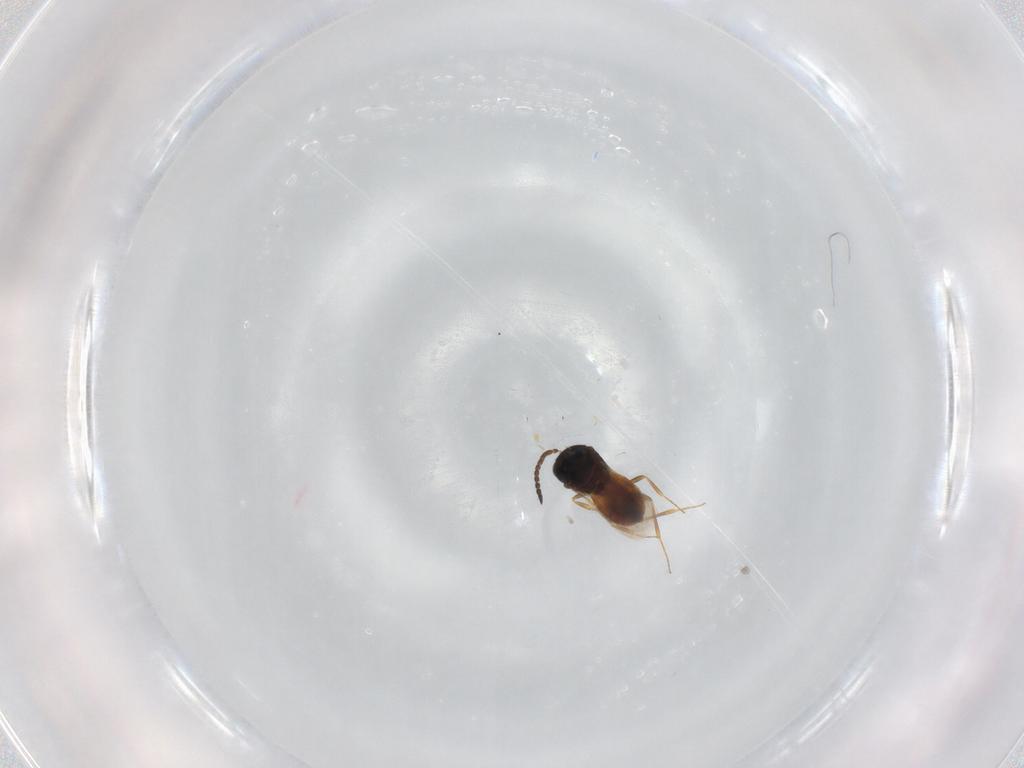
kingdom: Animalia
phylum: Arthropoda
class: Insecta
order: Hymenoptera
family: Scelionidae
